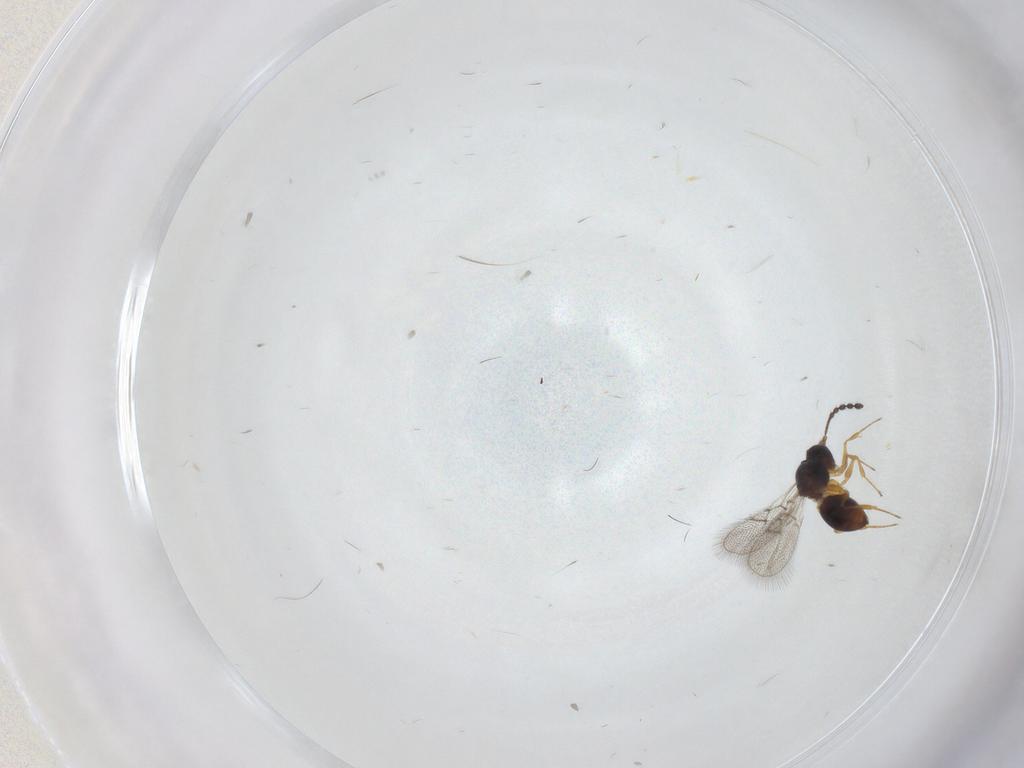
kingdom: Animalia
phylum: Arthropoda
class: Insecta
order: Hymenoptera
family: Figitidae
